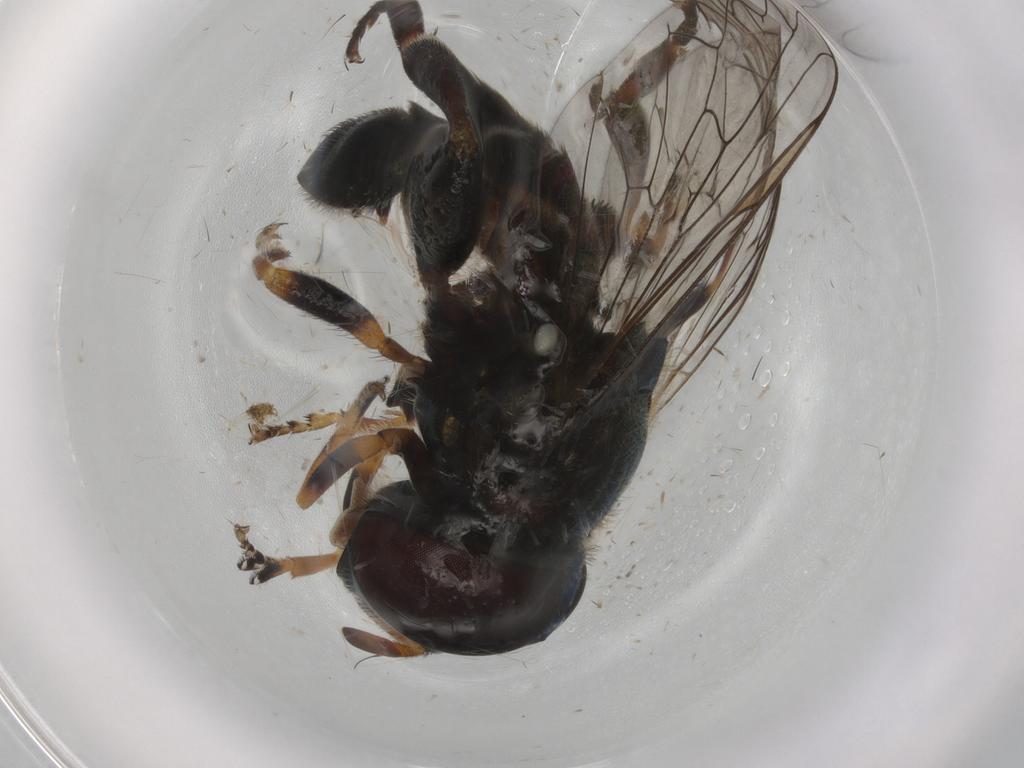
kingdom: Animalia
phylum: Arthropoda
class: Insecta
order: Diptera
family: Syrphidae
